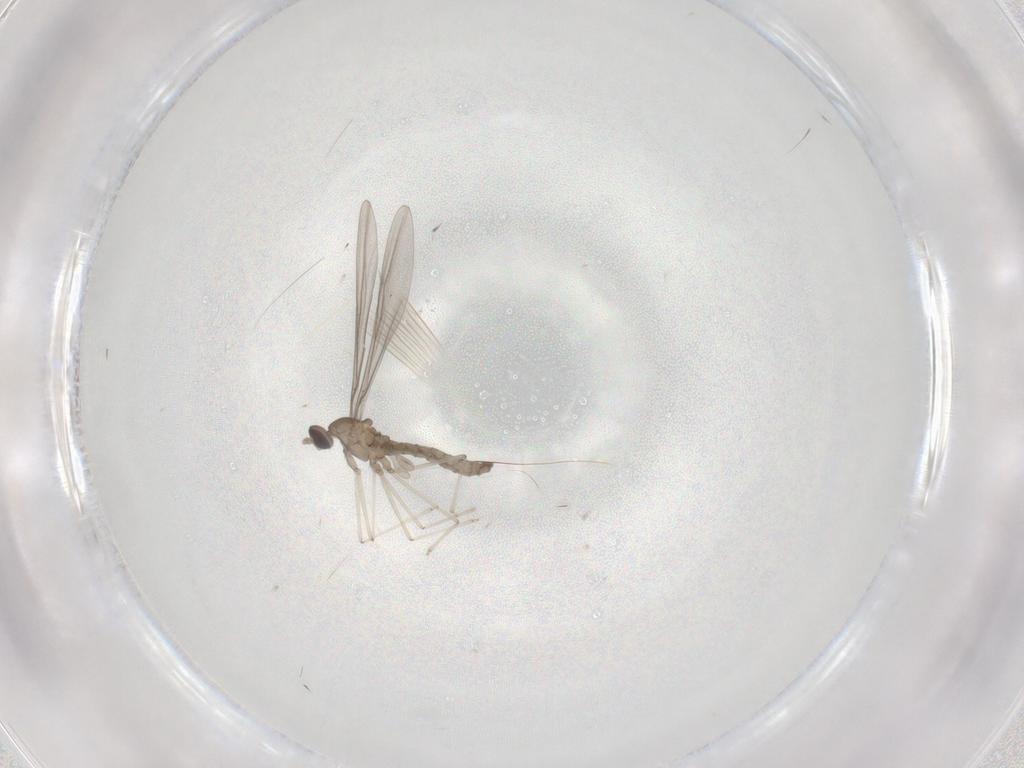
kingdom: Animalia
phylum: Arthropoda
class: Insecta
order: Diptera
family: Cecidomyiidae
